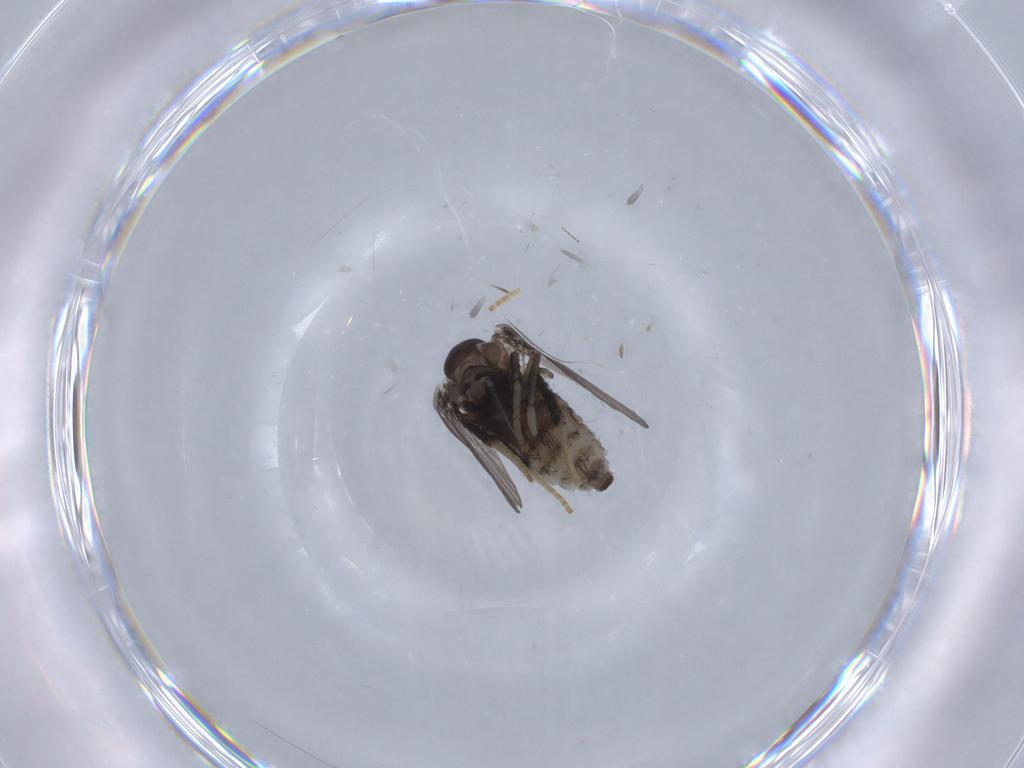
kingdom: Animalia
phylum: Arthropoda
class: Insecta
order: Diptera
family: Psychodidae
